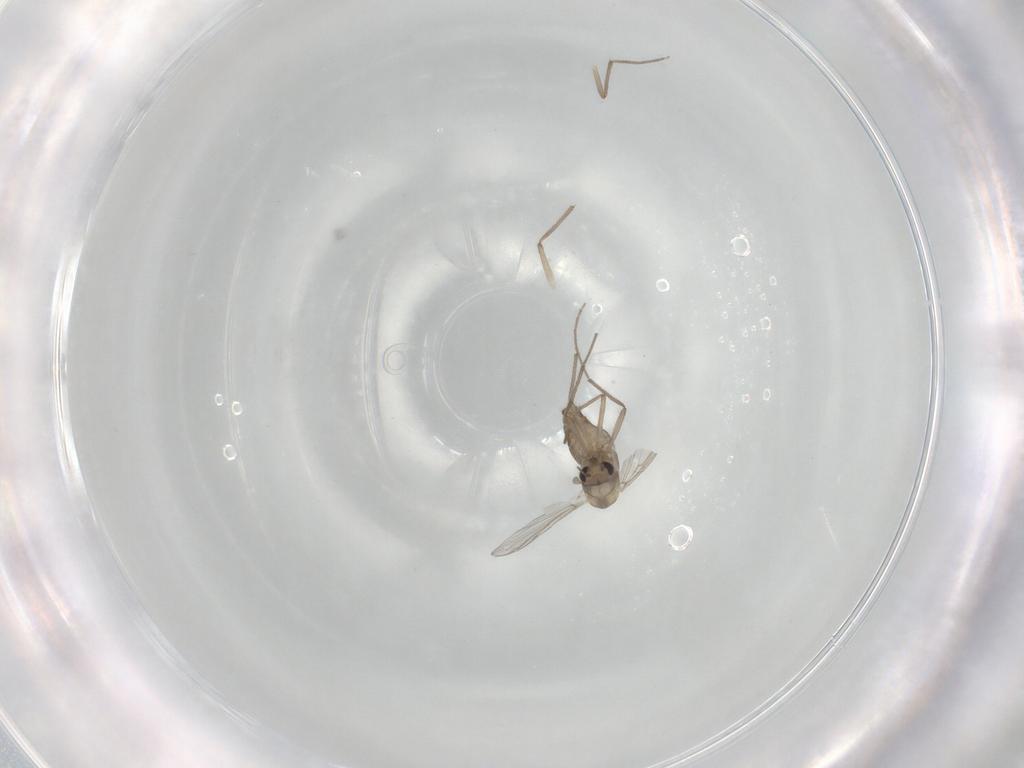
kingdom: Animalia
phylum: Arthropoda
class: Insecta
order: Diptera
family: Chironomidae
